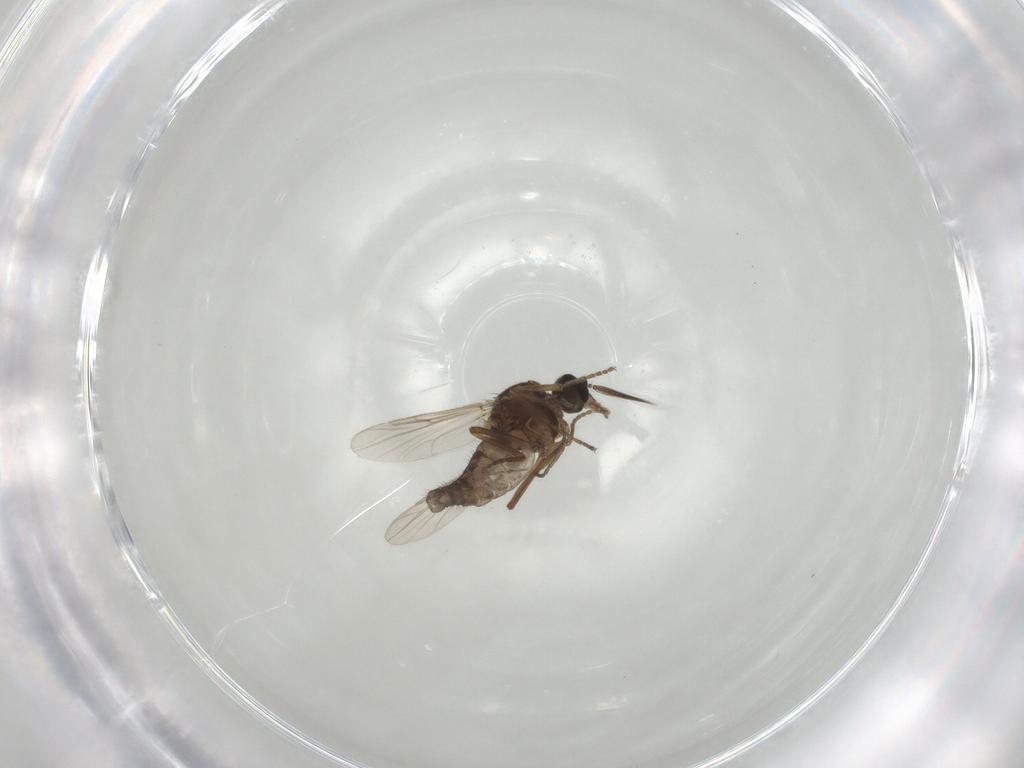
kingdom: Animalia
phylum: Arthropoda
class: Insecta
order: Diptera
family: Ceratopogonidae
